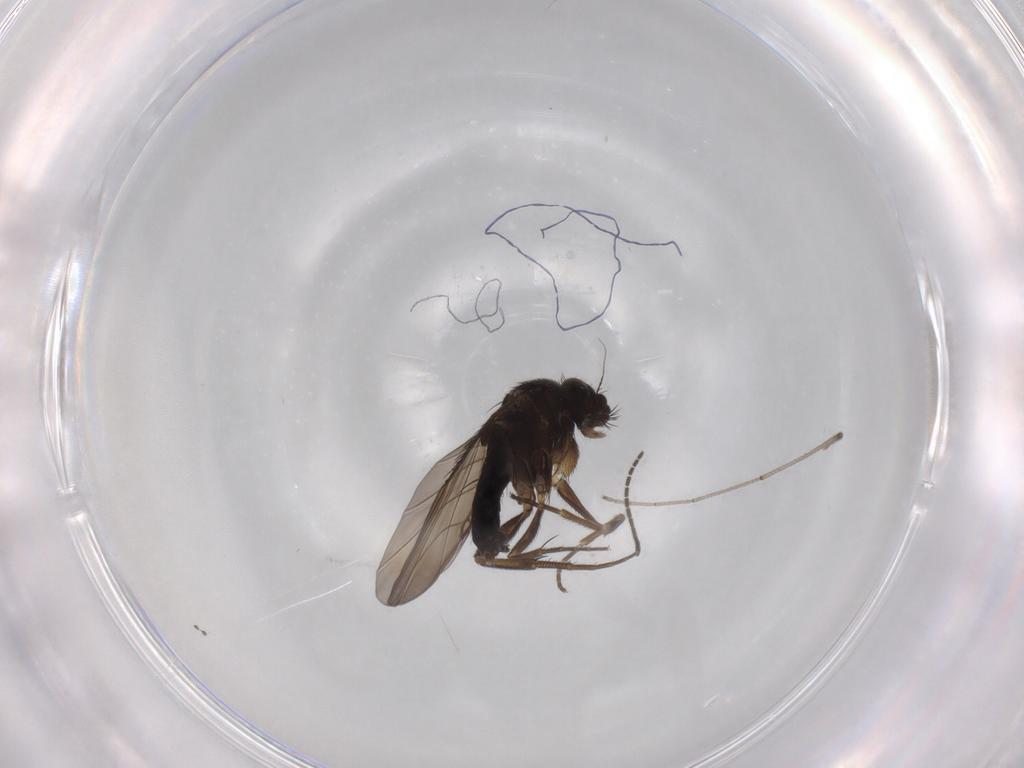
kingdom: Animalia
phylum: Arthropoda
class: Insecta
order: Diptera
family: Phoridae
